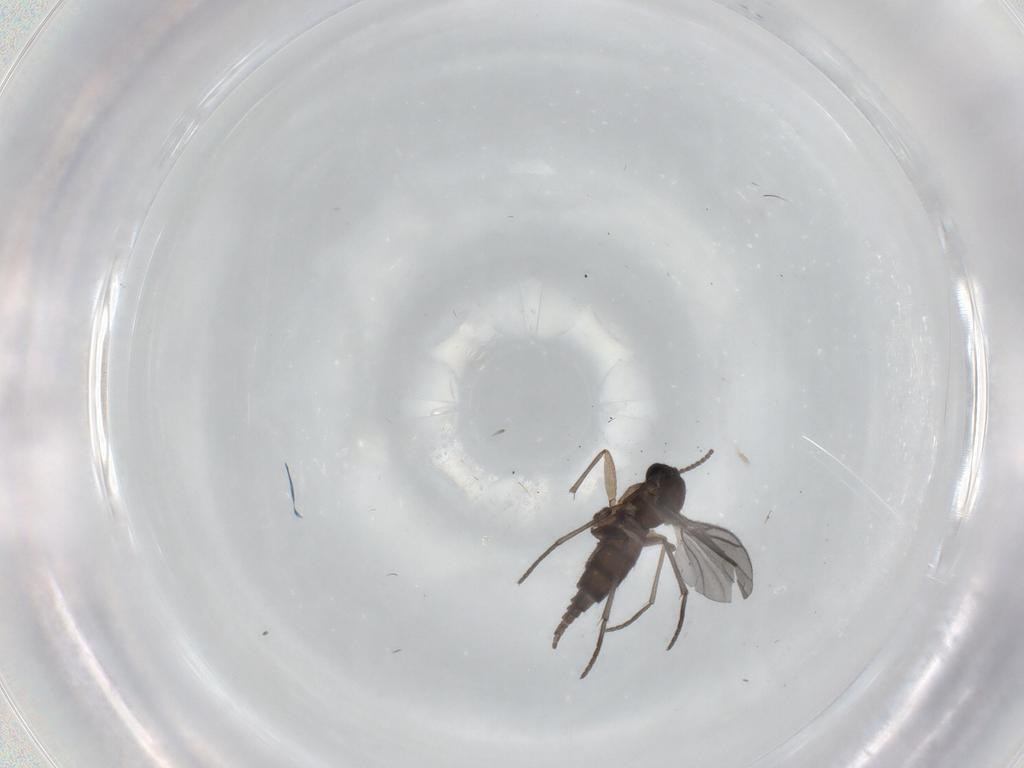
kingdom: Animalia
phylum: Arthropoda
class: Insecta
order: Diptera
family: Sciaridae
